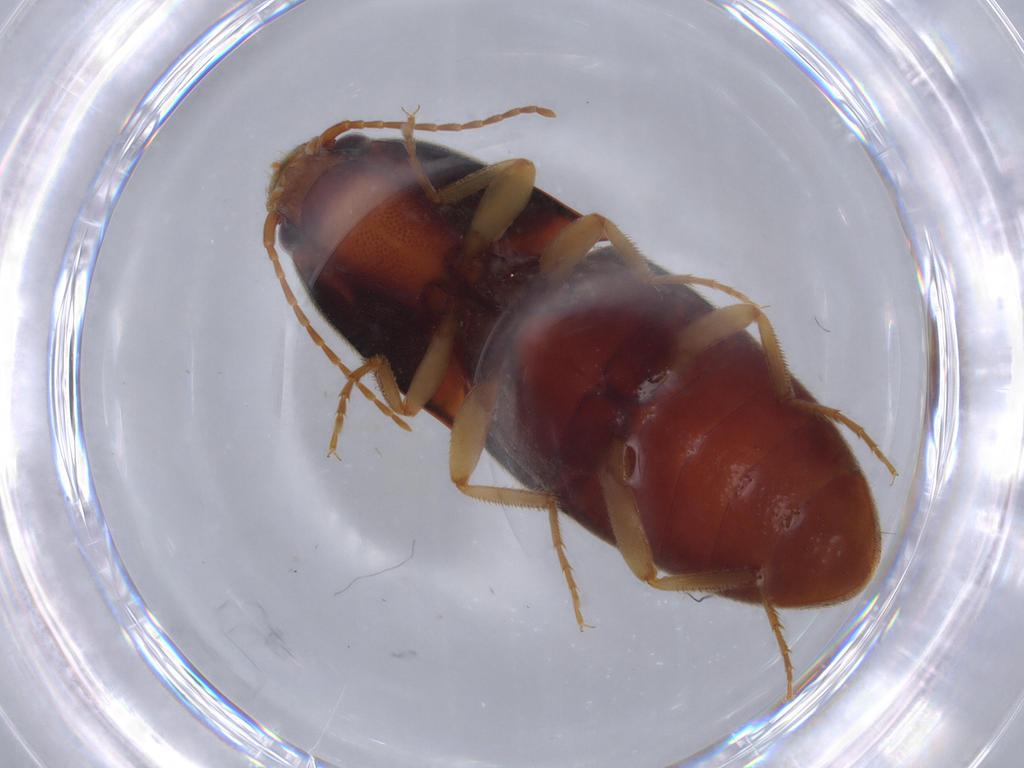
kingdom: Animalia
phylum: Arthropoda
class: Insecta
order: Coleoptera
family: Elateridae
